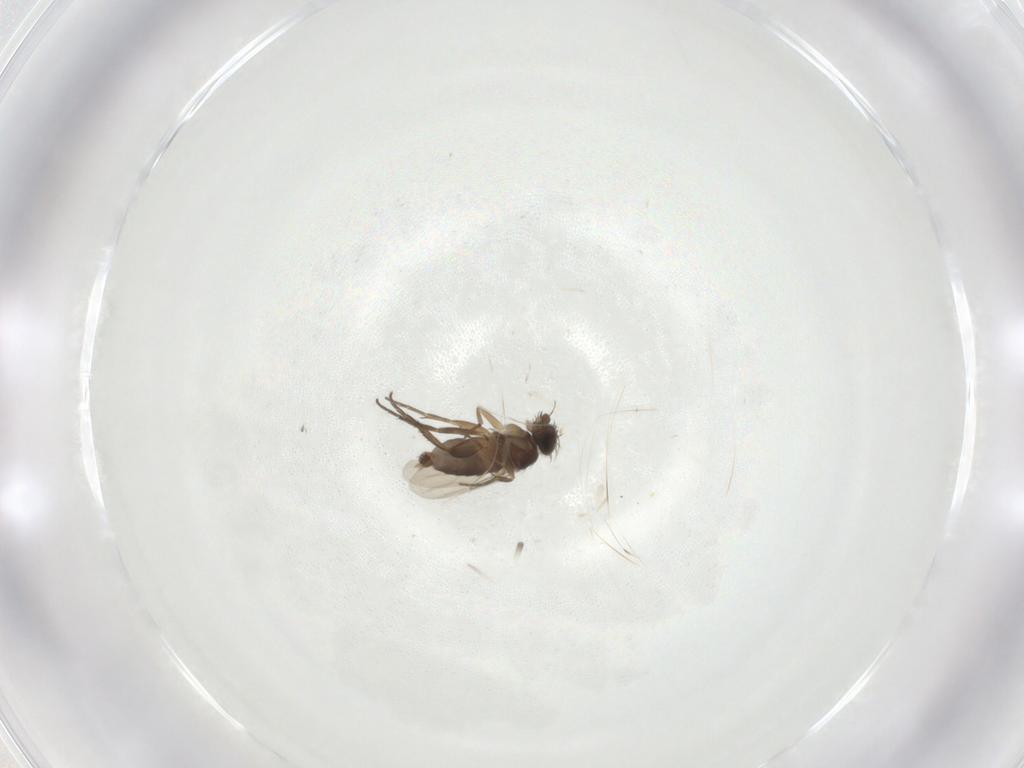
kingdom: Animalia
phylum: Arthropoda
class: Insecta
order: Diptera
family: Phoridae
